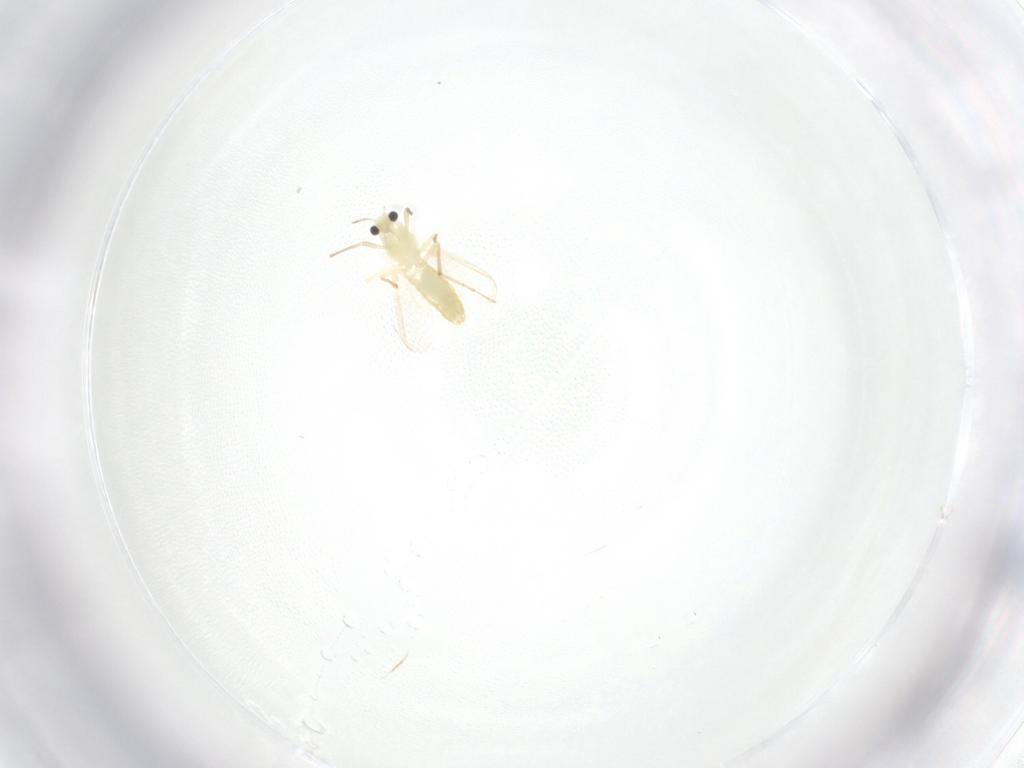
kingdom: Animalia
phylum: Arthropoda
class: Insecta
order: Diptera
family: Chironomidae
